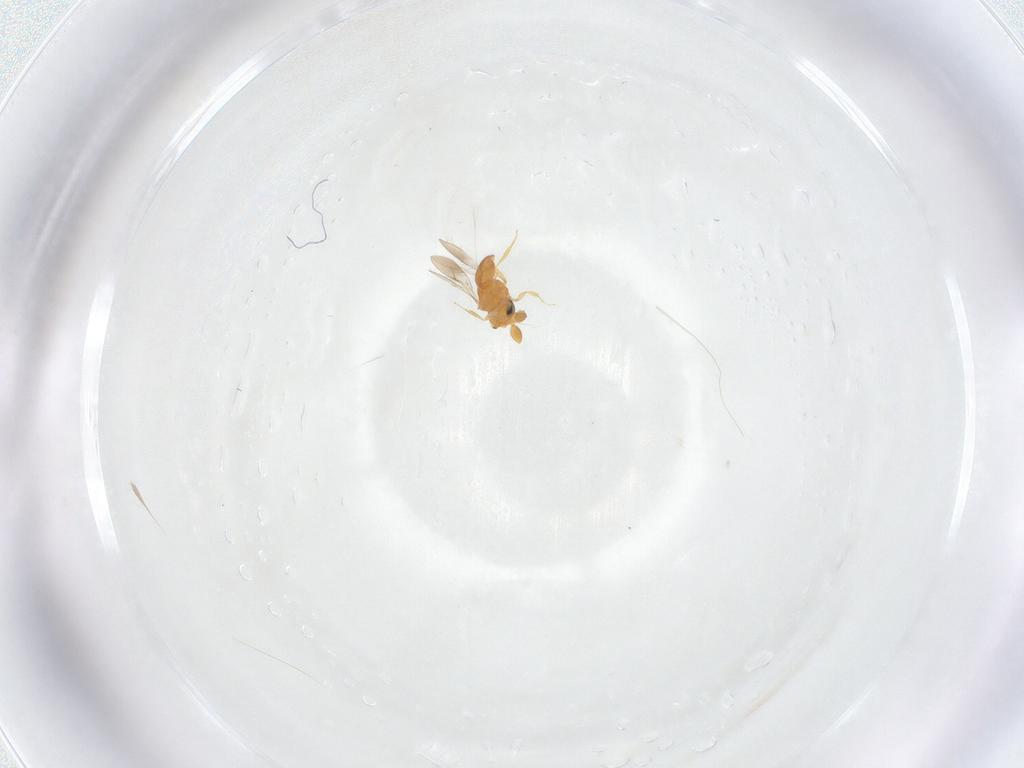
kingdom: Animalia
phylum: Arthropoda
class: Insecta
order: Hymenoptera
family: Scelionidae
